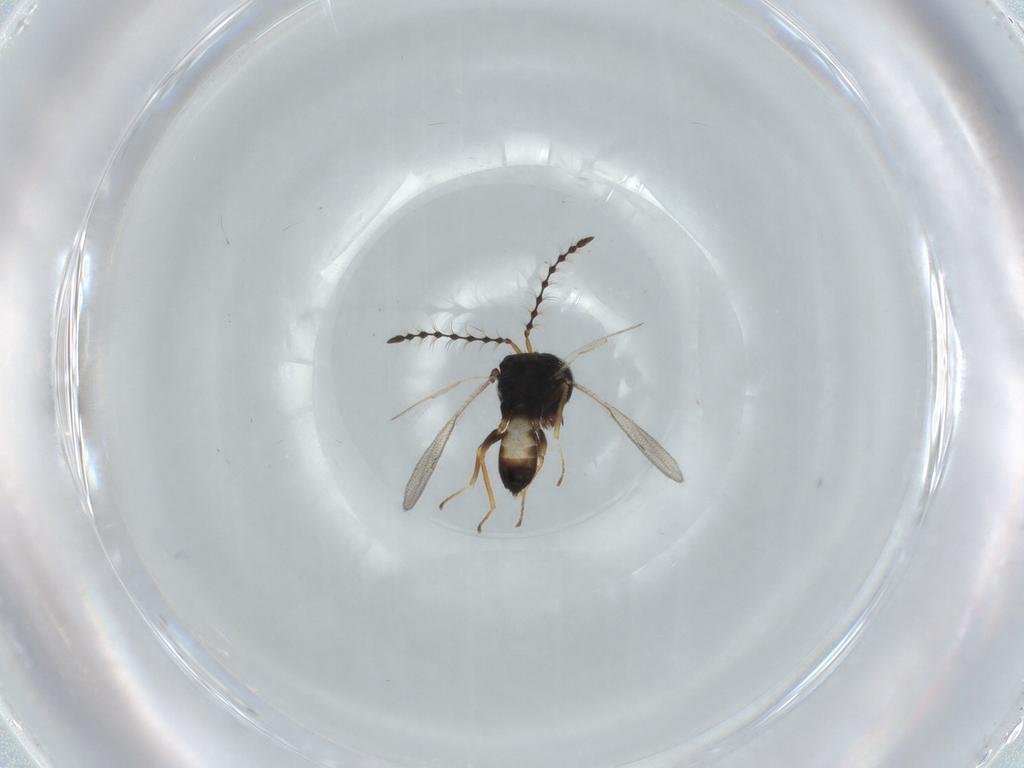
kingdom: Animalia
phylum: Arthropoda
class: Insecta
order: Hymenoptera
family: Pteromalidae
